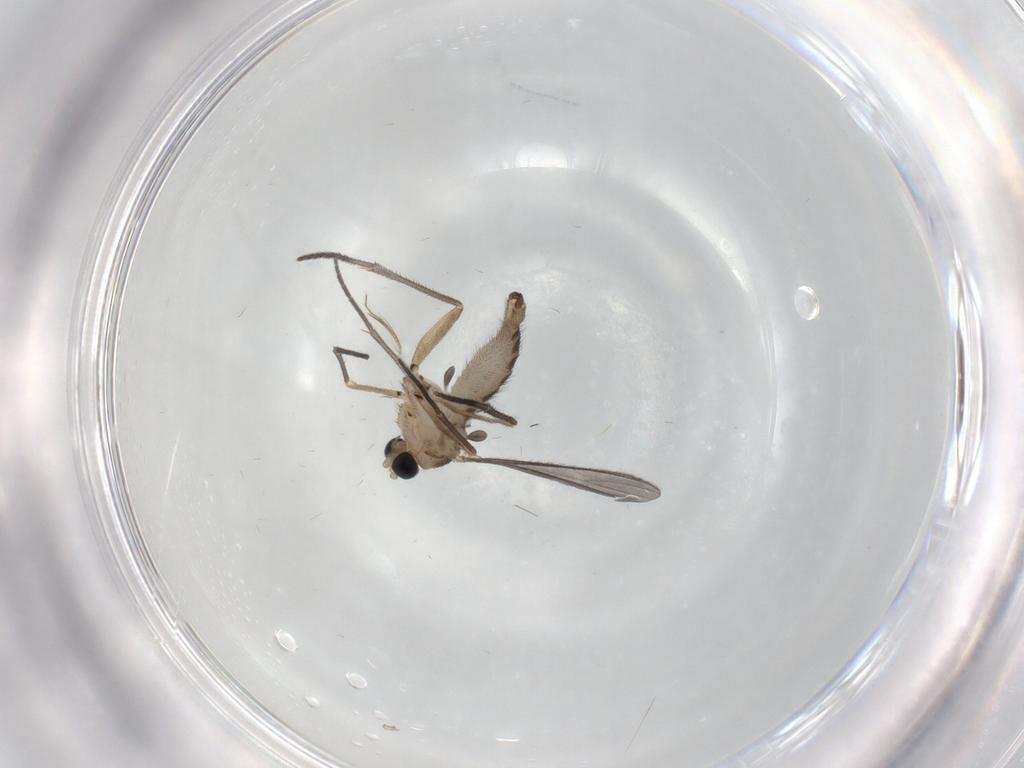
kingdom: Animalia
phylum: Arthropoda
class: Insecta
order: Diptera
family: Sciaridae
